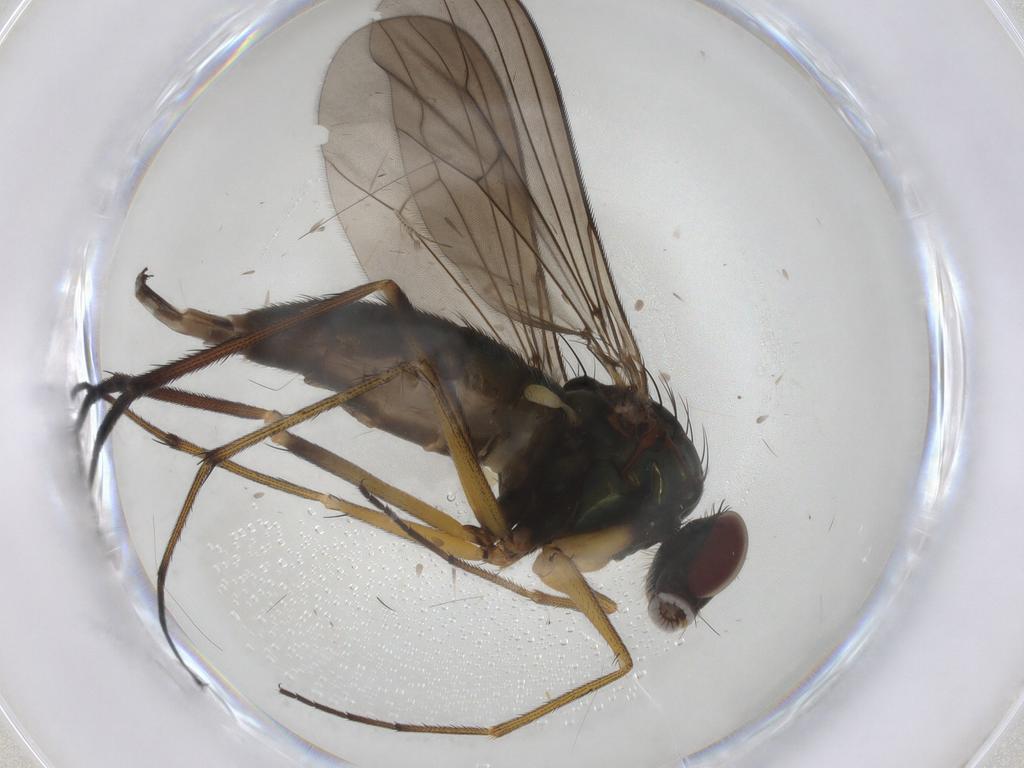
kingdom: Animalia
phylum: Arthropoda
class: Insecta
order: Diptera
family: Dolichopodidae
